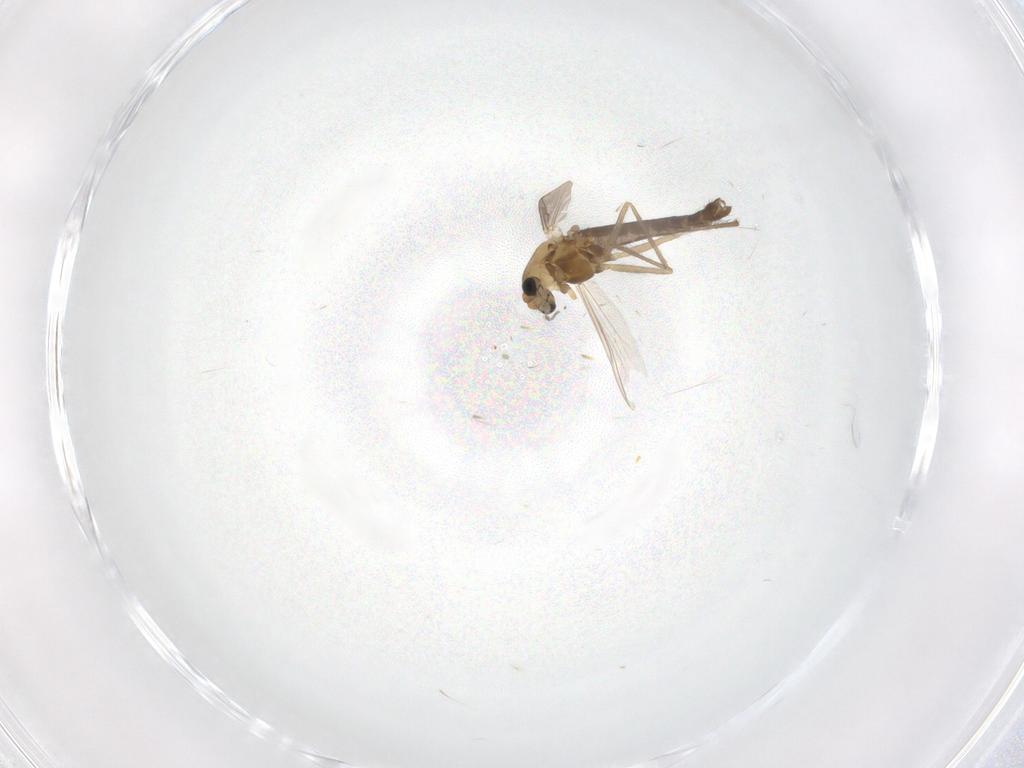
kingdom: Animalia
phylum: Arthropoda
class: Insecta
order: Diptera
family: Chironomidae
